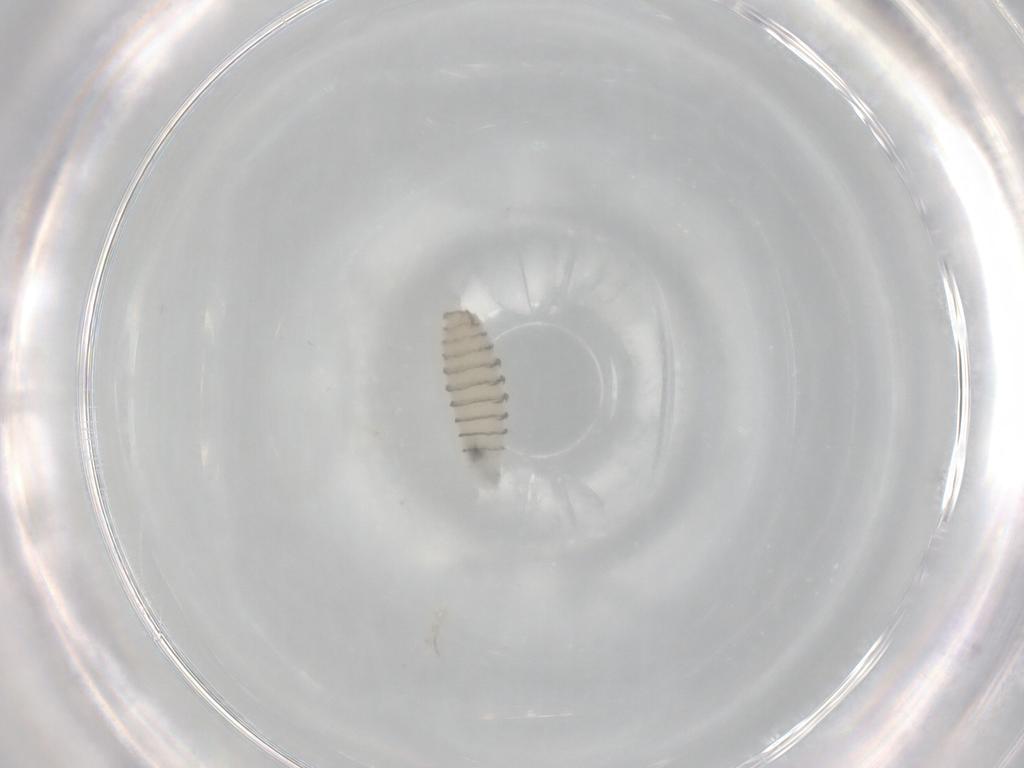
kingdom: Animalia
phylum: Arthropoda
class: Insecta
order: Diptera
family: Sarcophagidae
